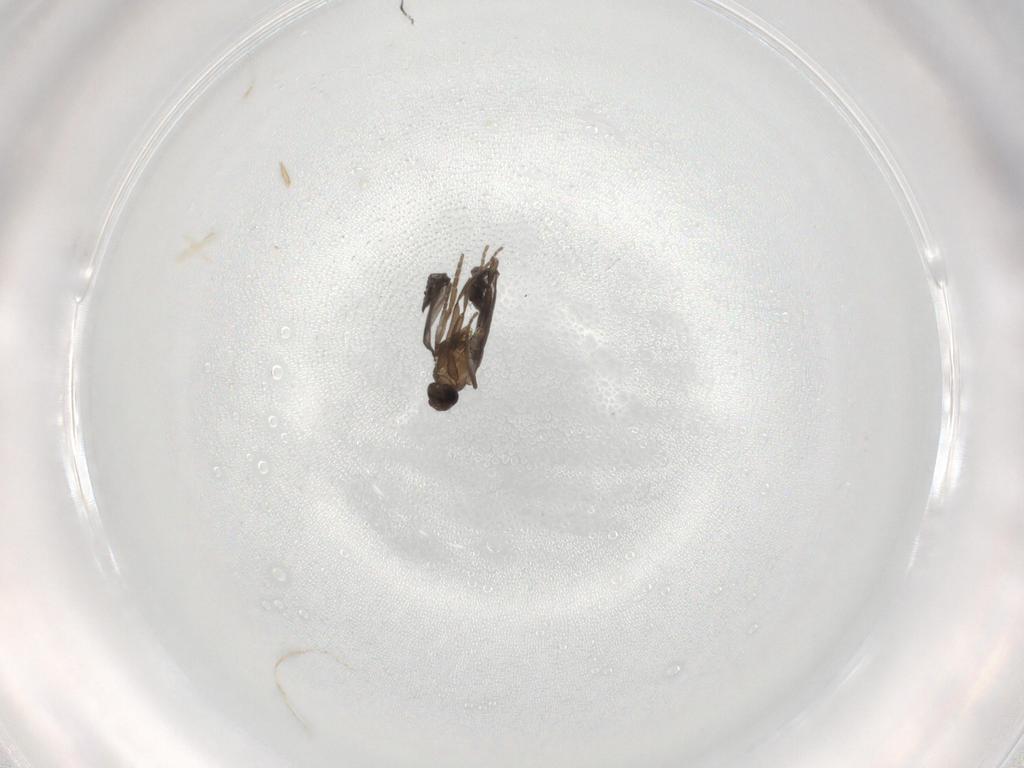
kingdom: Animalia
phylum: Arthropoda
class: Insecta
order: Diptera
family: Phoridae
